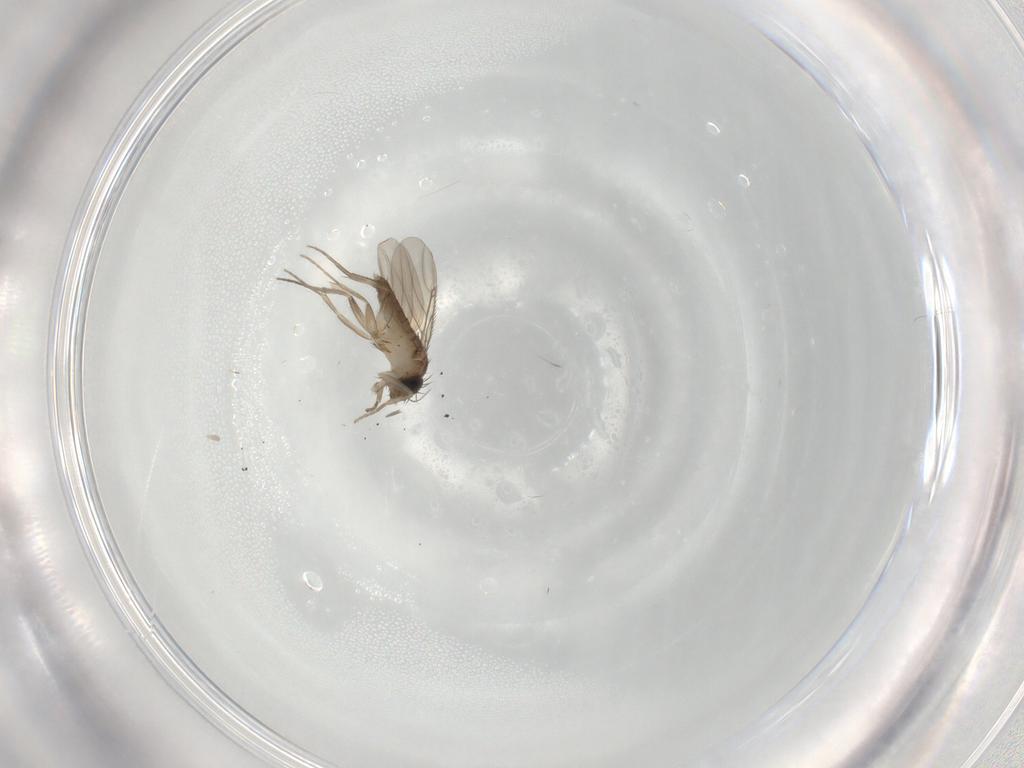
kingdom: Animalia
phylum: Arthropoda
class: Insecta
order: Diptera
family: Phoridae
